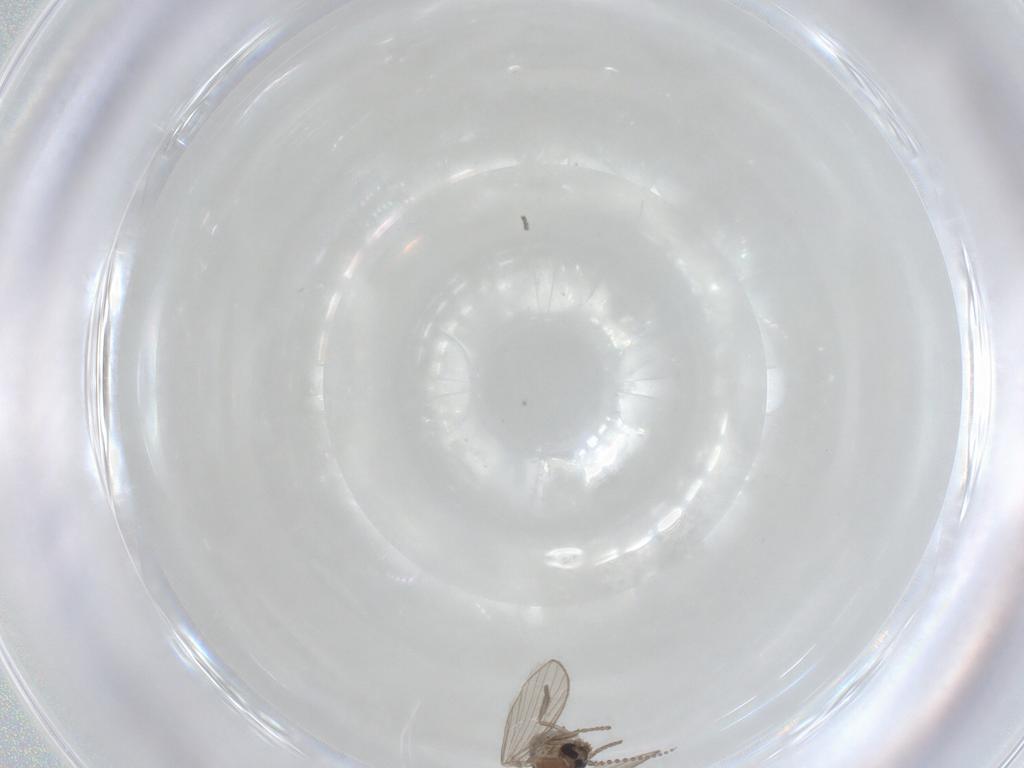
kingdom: Animalia
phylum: Arthropoda
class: Insecta
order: Diptera
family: Psychodidae
